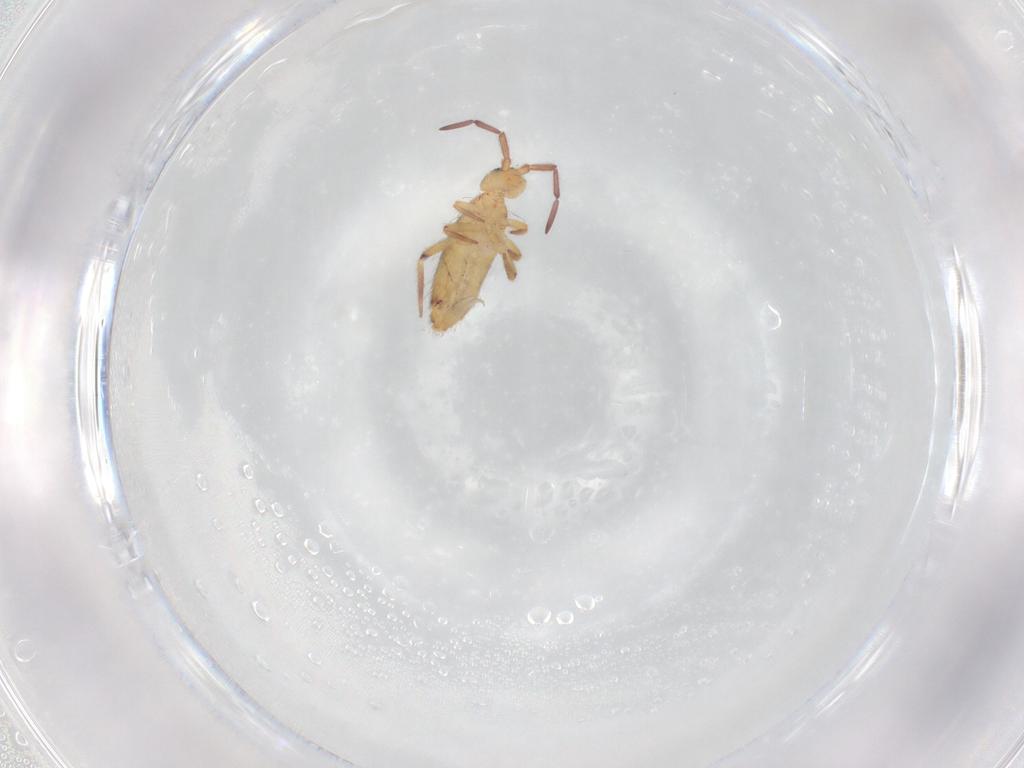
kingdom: Animalia
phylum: Arthropoda
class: Collembola
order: Entomobryomorpha
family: Entomobryidae
